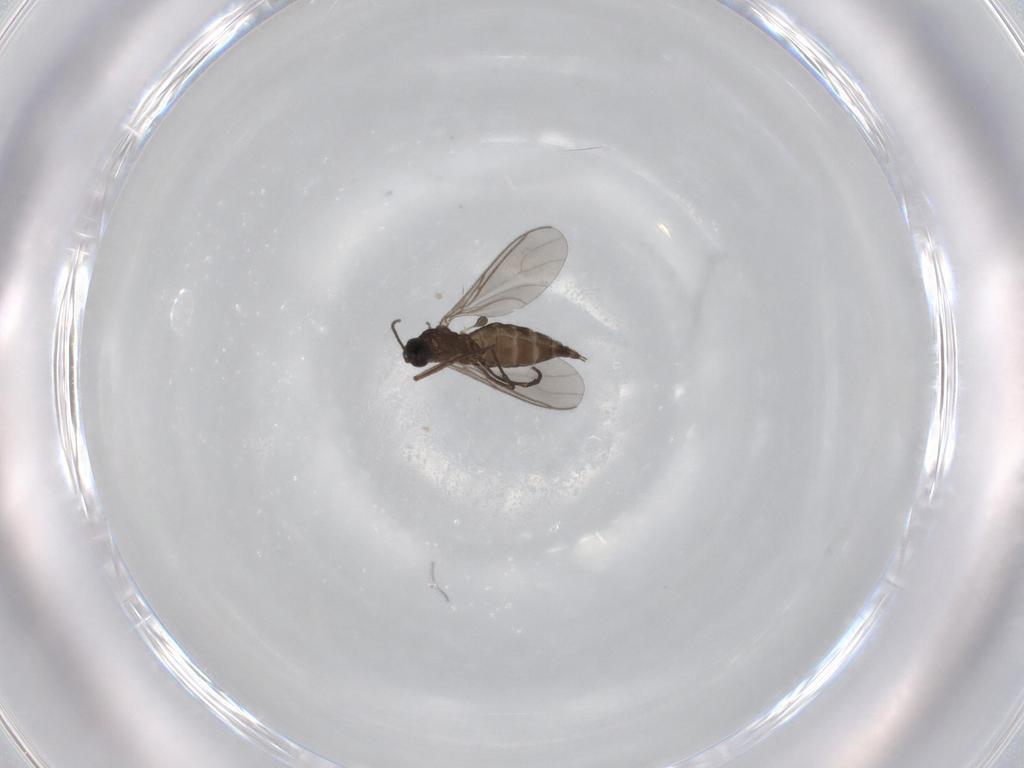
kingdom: Animalia
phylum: Arthropoda
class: Insecta
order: Diptera
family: Sciaridae
